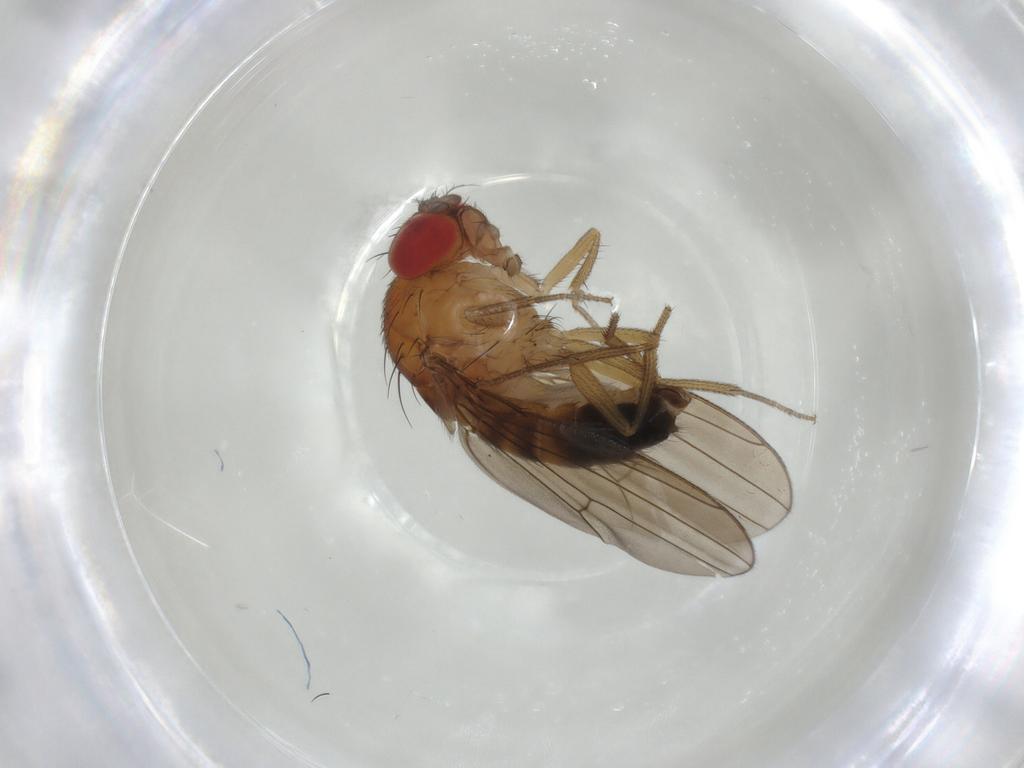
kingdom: Animalia
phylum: Arthropoda
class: Insecta
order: Diptera
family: Drosophilidae
